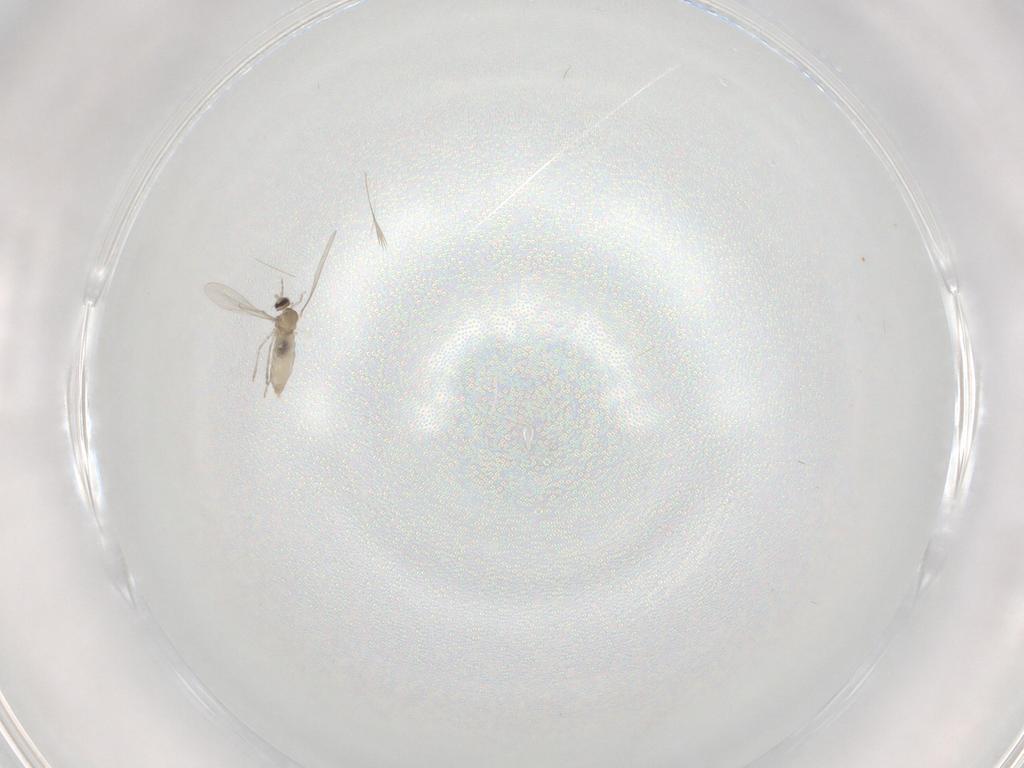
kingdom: Animalia
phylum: Arthropoda
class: Insecta
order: Diptera
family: Cecidomyiidae
